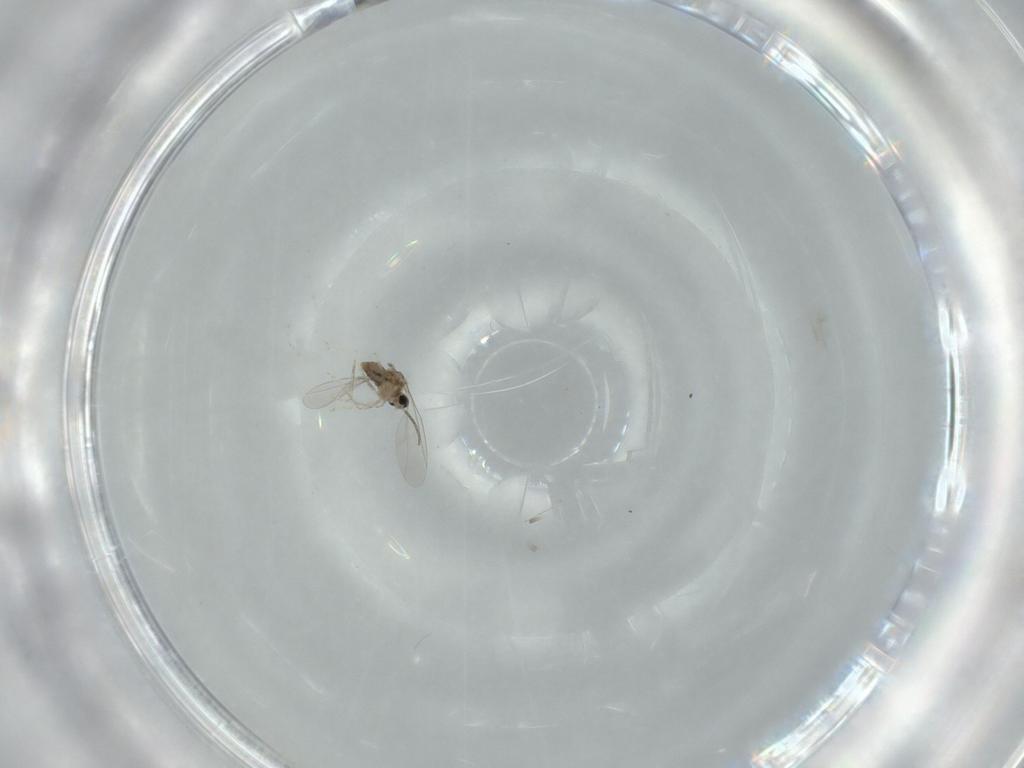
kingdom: Animalia
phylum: Arthropoda
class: Insecta
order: Diptera
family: Cecidomyiidae
